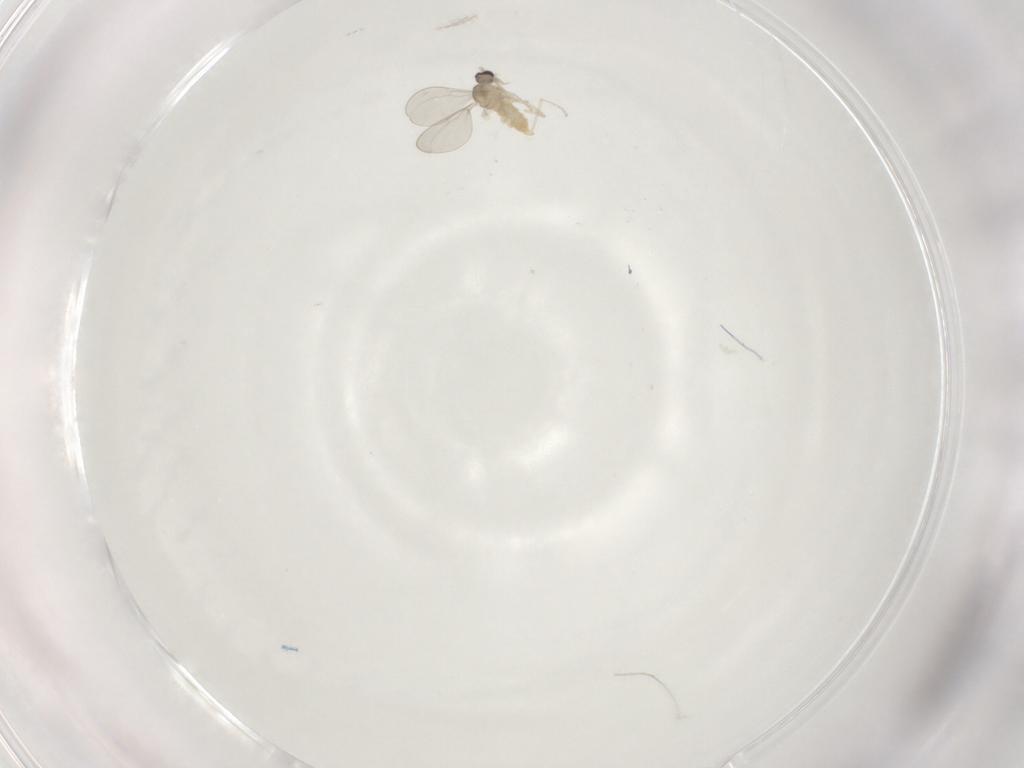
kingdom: Animalia
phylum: Arthropoda
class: Insecta
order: Diptera
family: Cecidomyiidae
